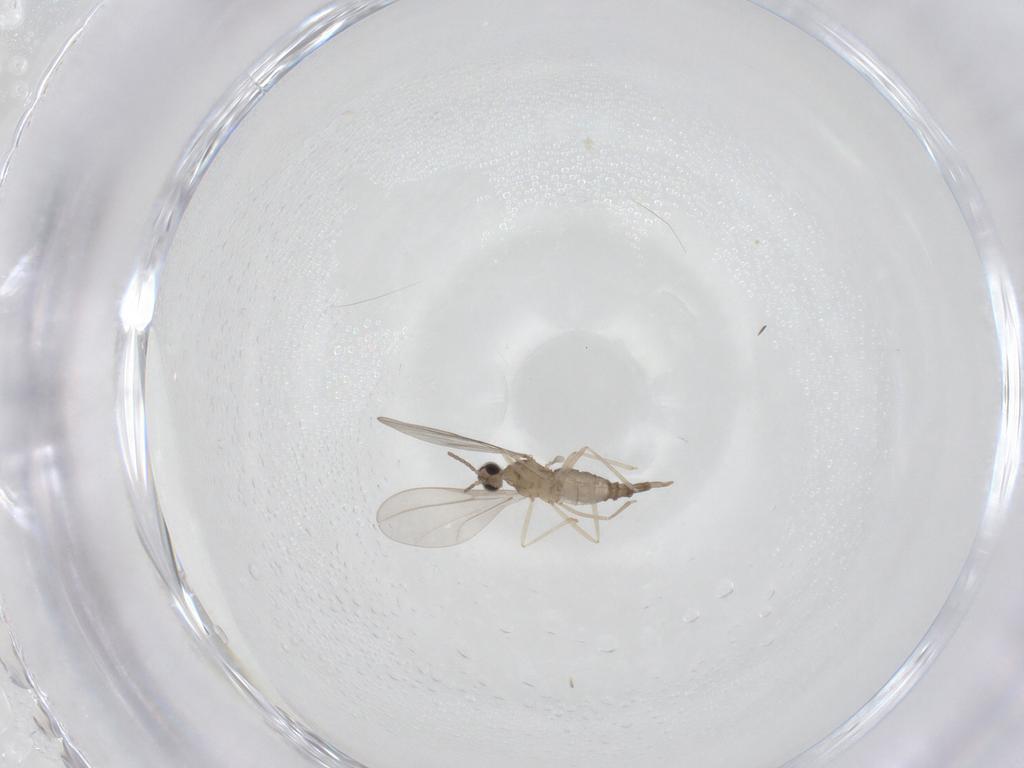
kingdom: Animalia
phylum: Arthropoda
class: Insecta
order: Diptera
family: Cecidomyiidae
